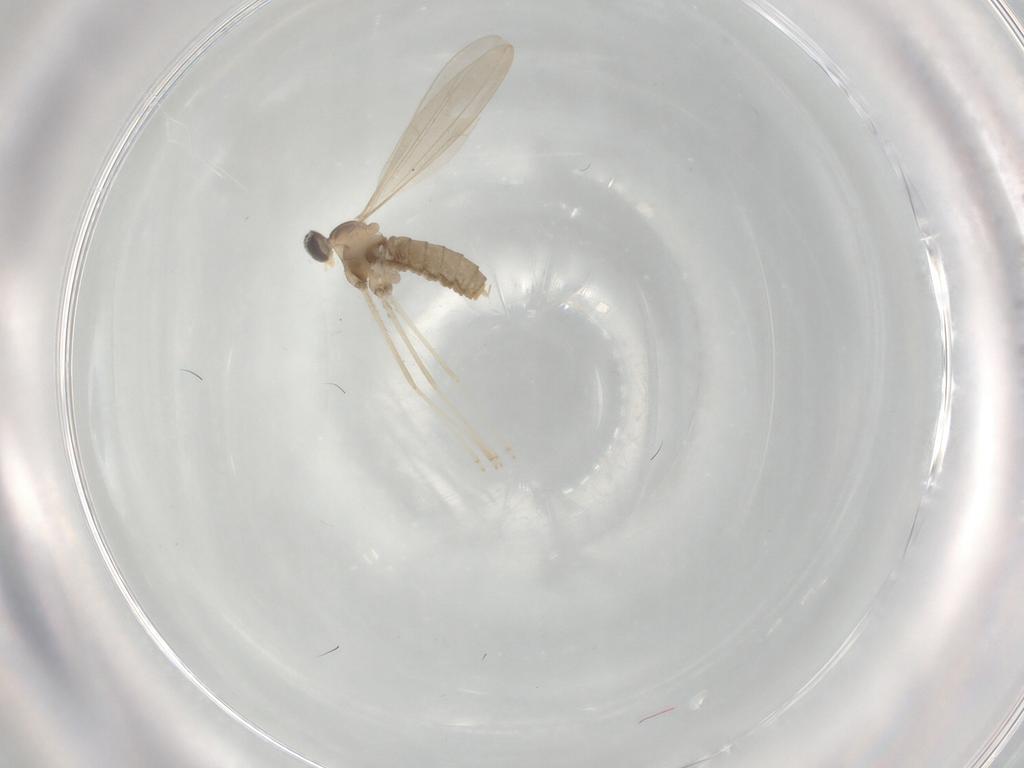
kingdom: Animalia
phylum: Arthropoda
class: Insecta
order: Diptera
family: Cecidomyiidae
